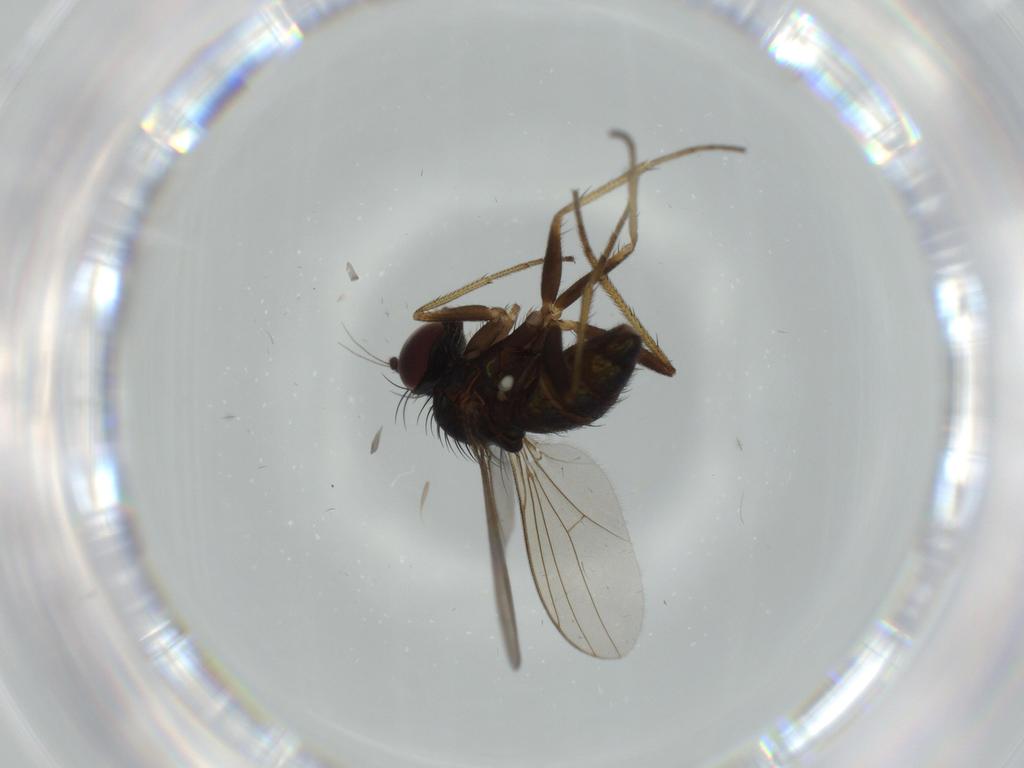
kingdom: Animalia
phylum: Arthropoda
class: Insecta
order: Diptera
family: Cecidomyiidae
